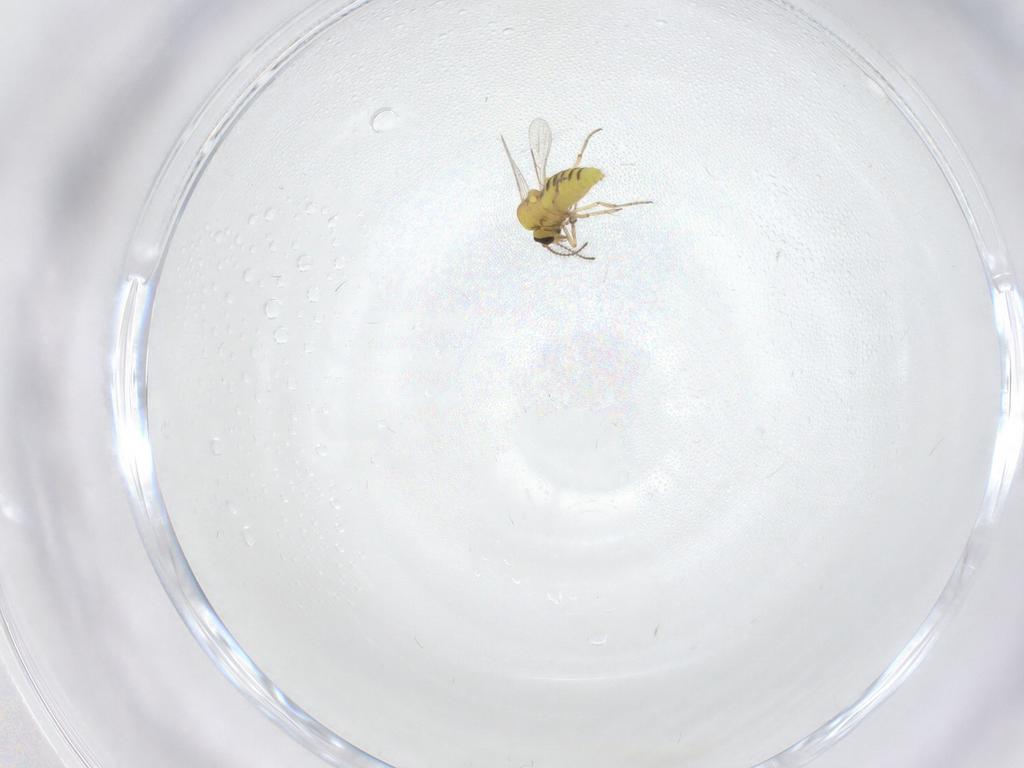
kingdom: Animalia
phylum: Arthropoda
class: Insecta
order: Diptera
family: Ceratopogonidae
